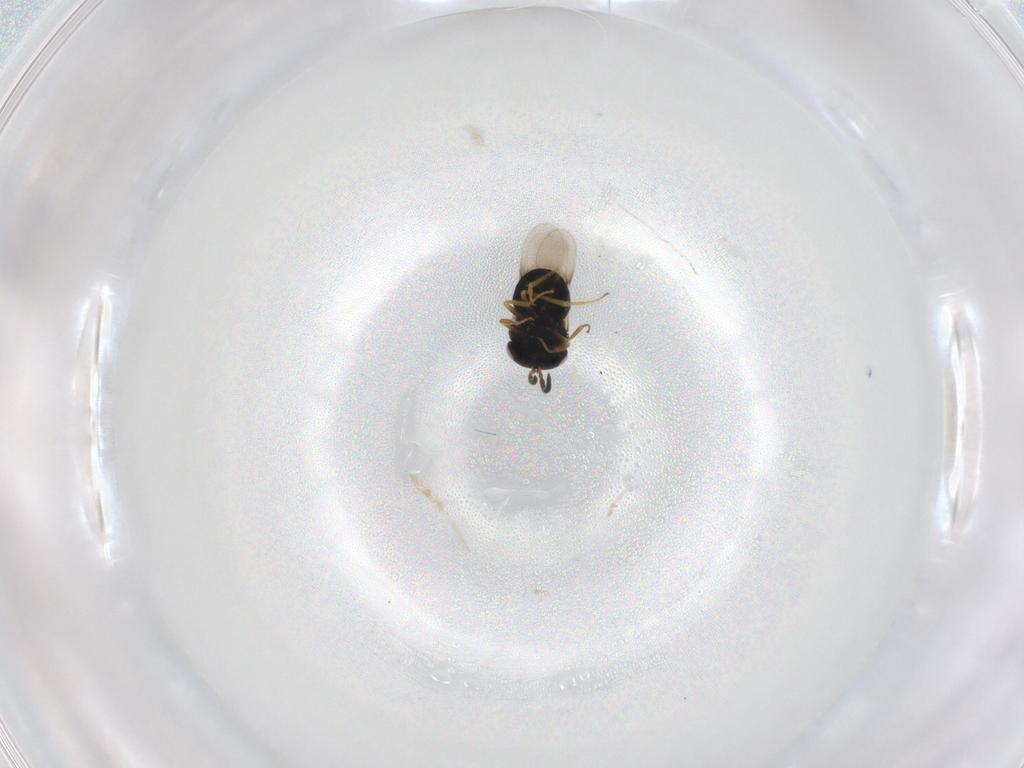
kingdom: Animalia
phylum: Arthropoda
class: Insecta
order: Hymenoptera
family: Scelionidae
